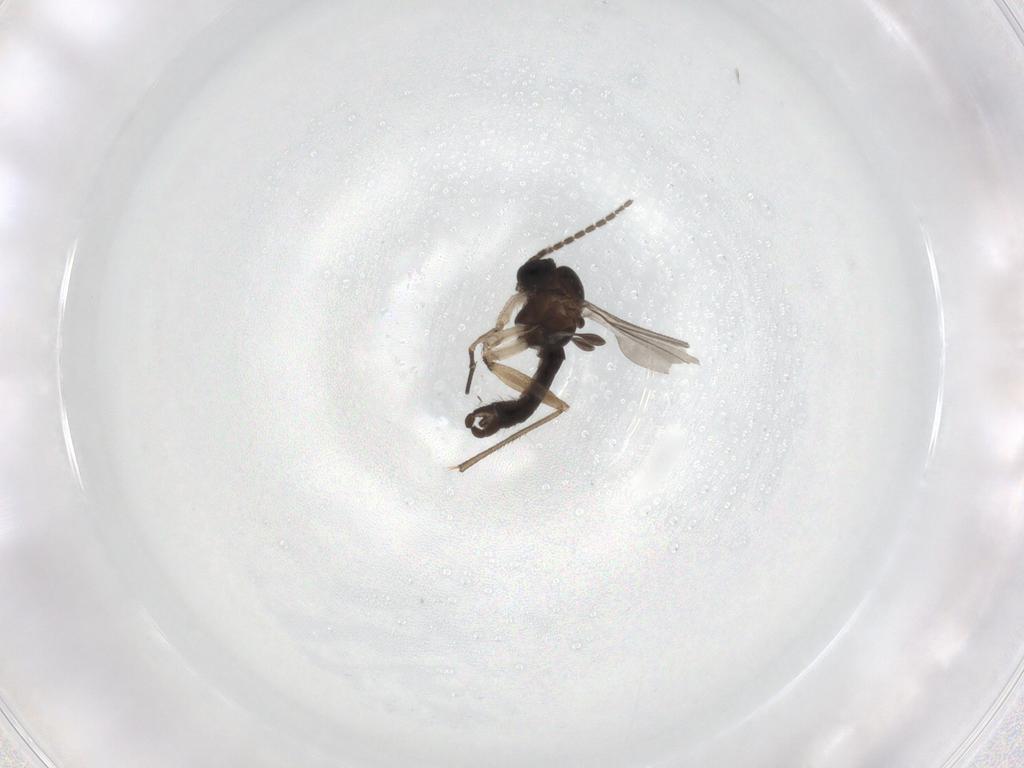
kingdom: Animalia
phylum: Arthropoda
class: Insecta
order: Diptera
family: Sciaridae
